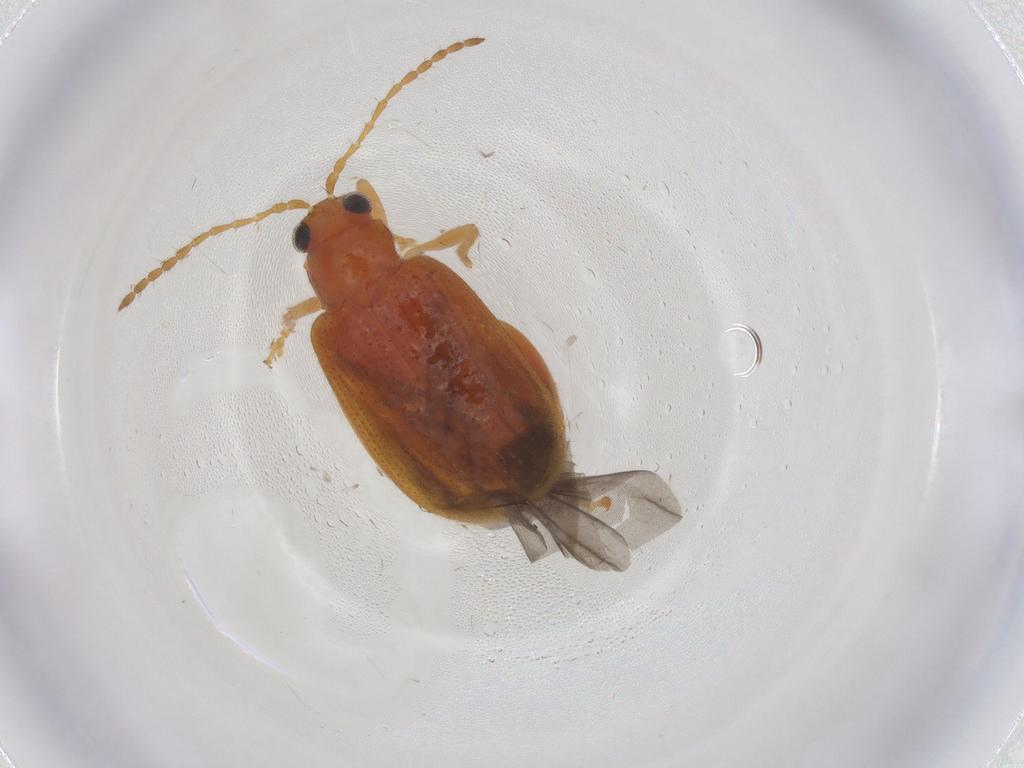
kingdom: Animalia
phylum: Arthropoda
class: Insecta
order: Coleoptera
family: Chrysomelidae
